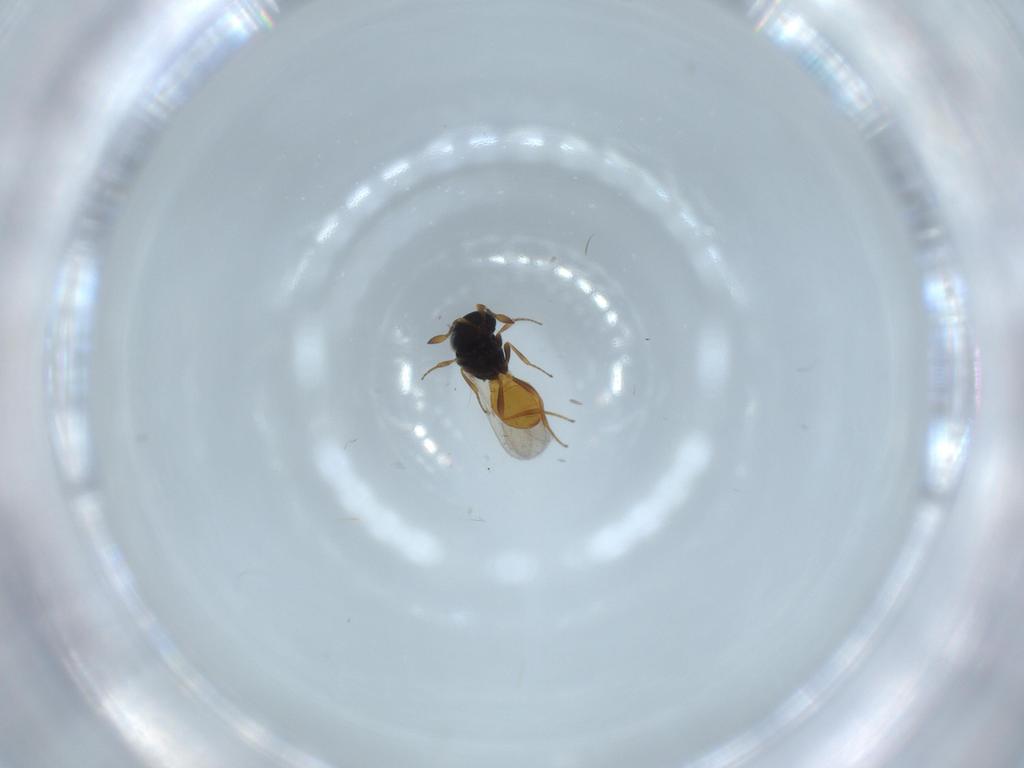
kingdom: Animalia
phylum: Arthropoda
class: Insecta
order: Hymenoptera
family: Scelionidae
